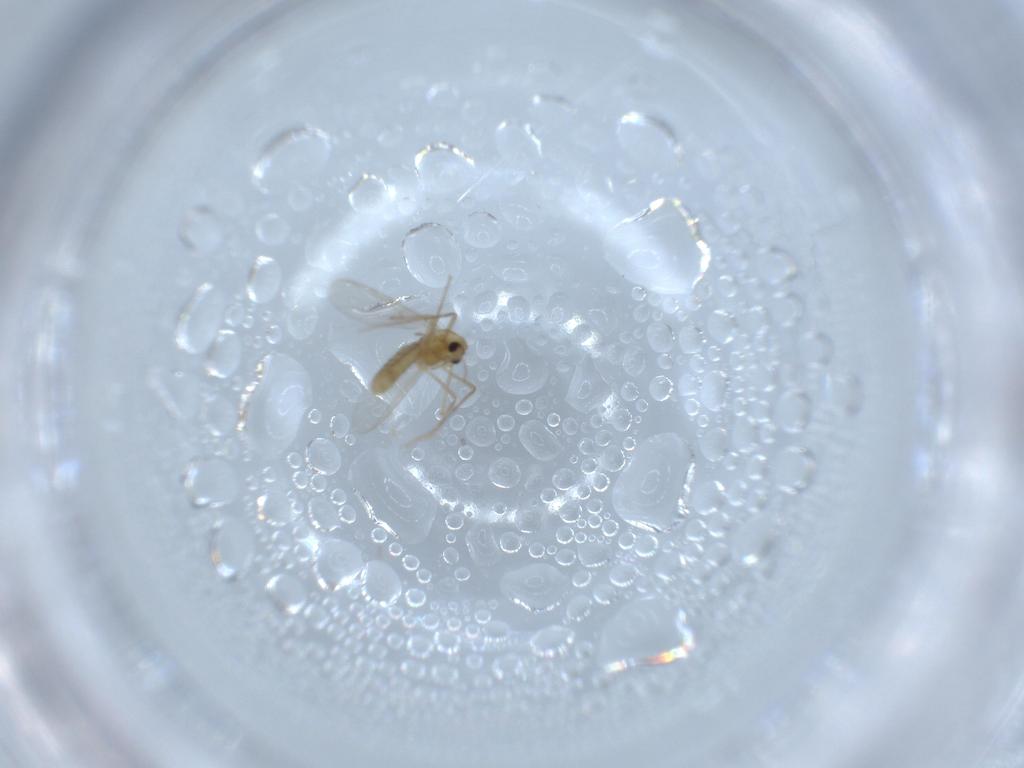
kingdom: Animalia
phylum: Arthropoda
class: Insecta
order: Diptera
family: Chironomidae
